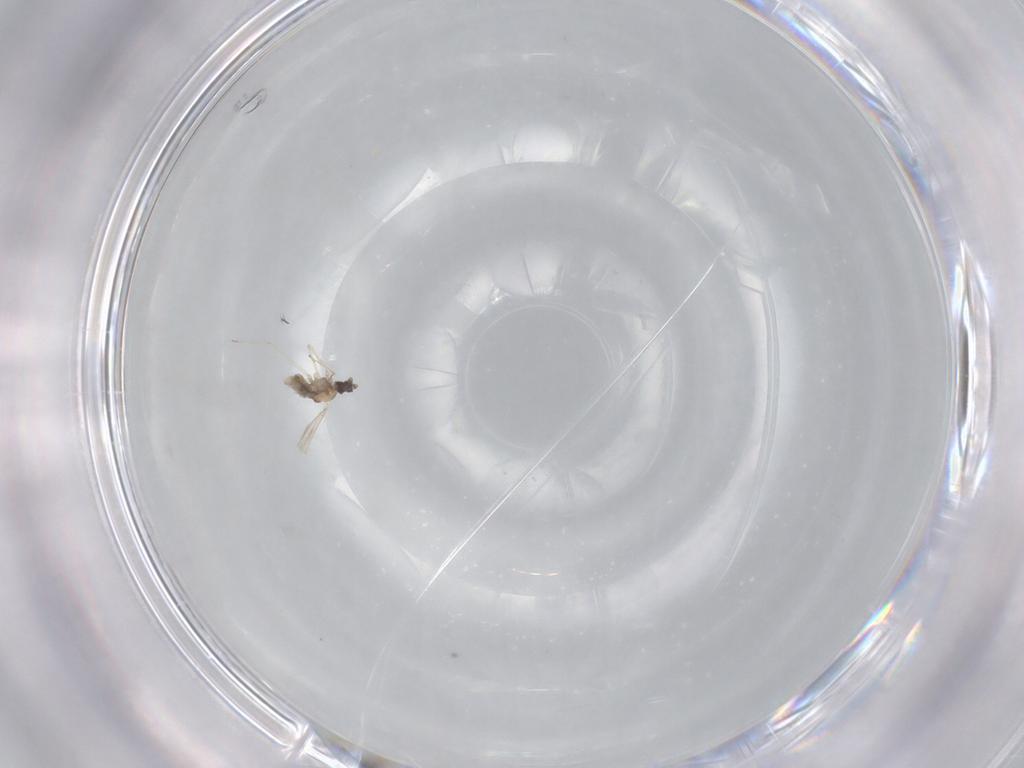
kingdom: Animalia
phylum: Arthropoda
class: Insecta
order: Diptera
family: Cecidomyiidae
